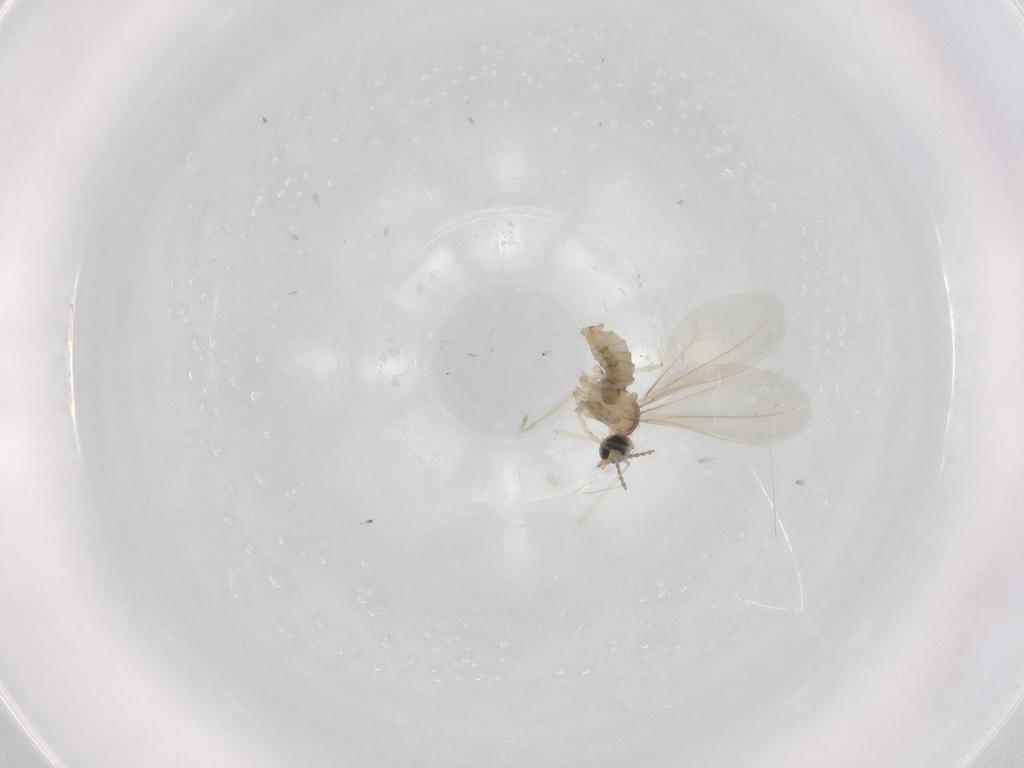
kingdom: Animalia
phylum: Arthropoda
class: Insecta
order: Diptera
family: Cecidomyiidae
